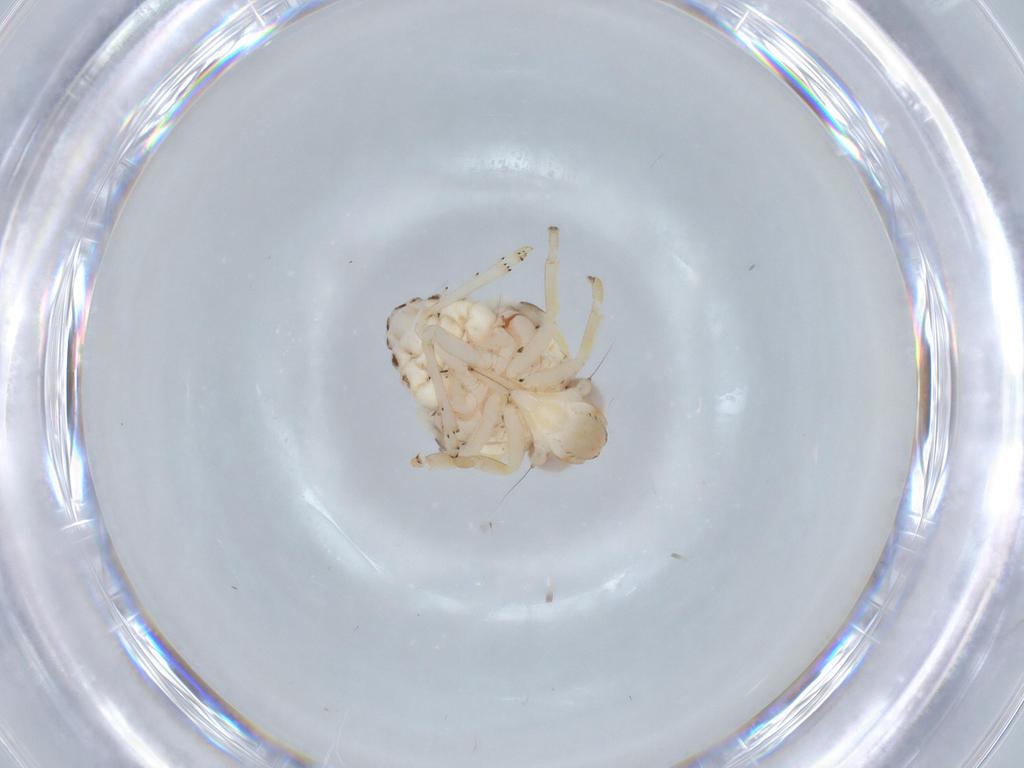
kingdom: Animalia
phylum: Arthropoda
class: Insecta
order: Hemiptera
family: Nogodinidae
